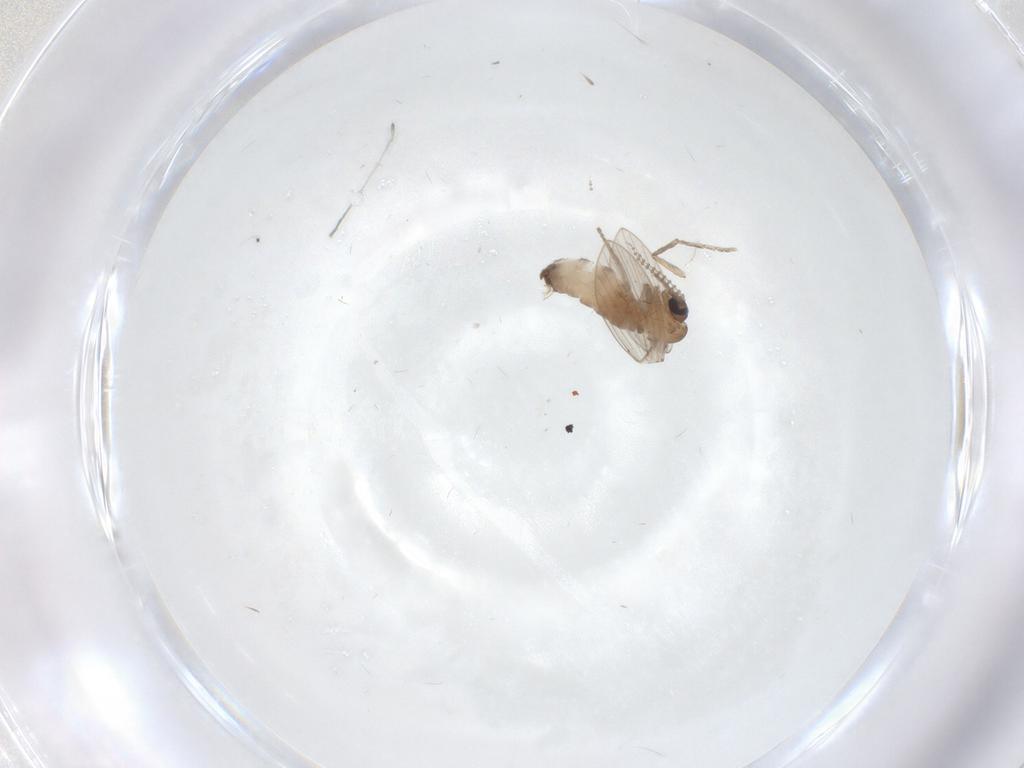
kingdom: Animalia
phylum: Arthropoda
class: Insecta
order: Diptera
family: Psychodidae
